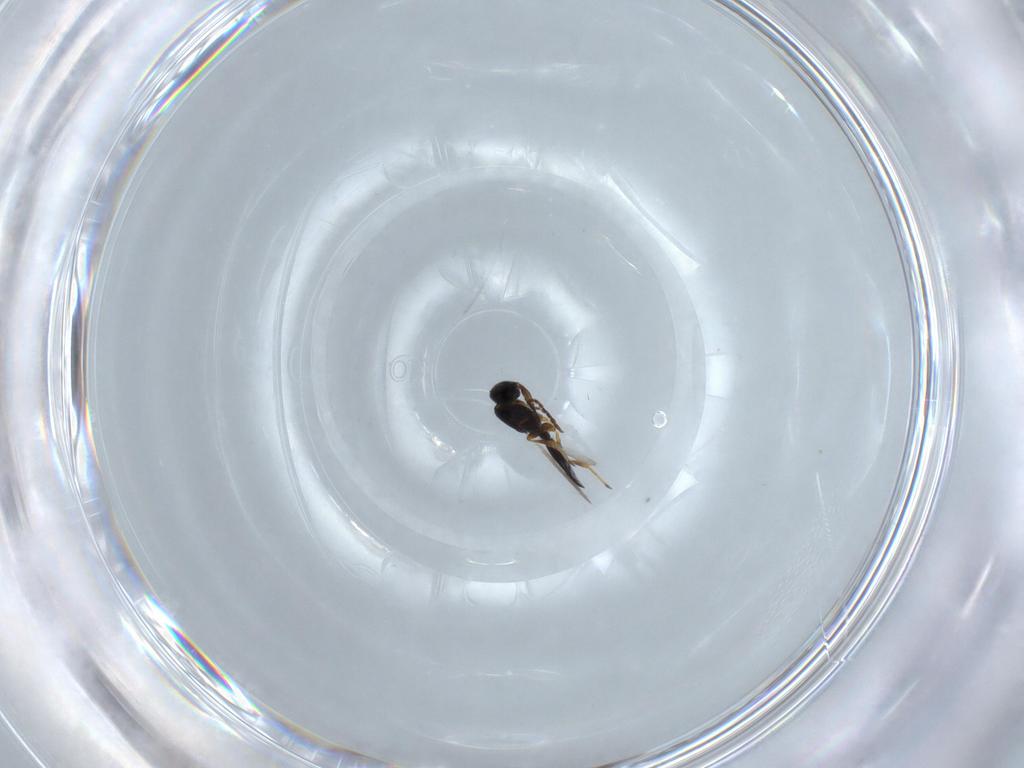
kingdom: Animalia
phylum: Arthropoda
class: Insecta
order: Hymenoptera
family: Platygastridae
